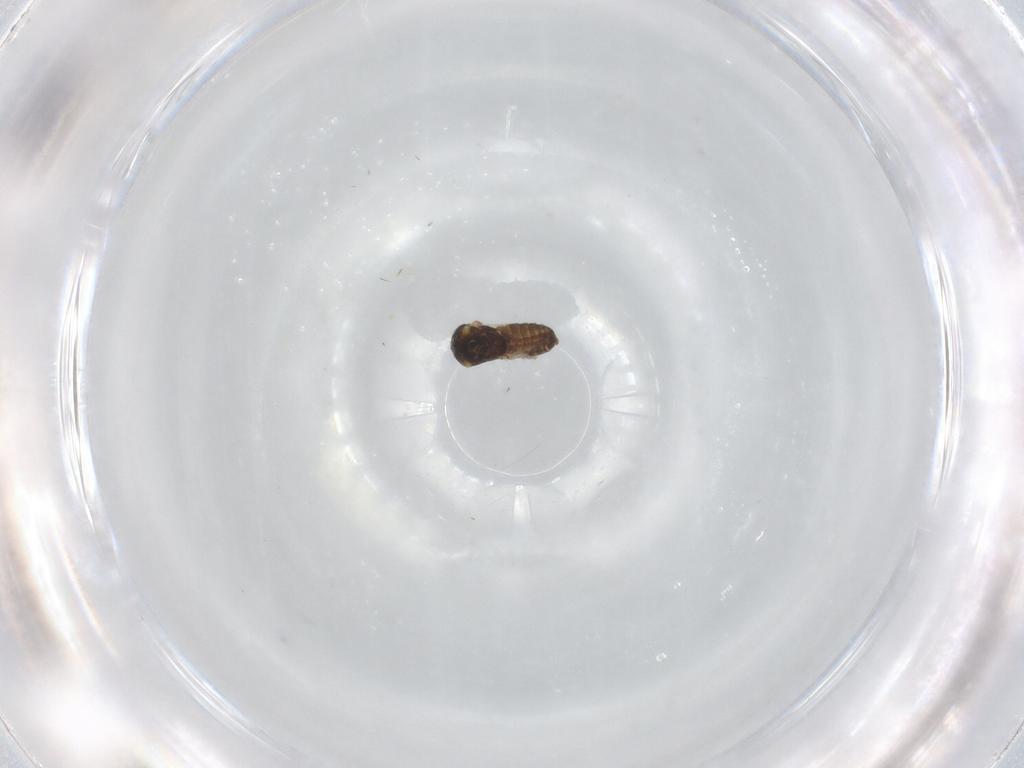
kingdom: Animalia
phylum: Arthropoda
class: Insecta
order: Diptera
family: Ceratopogonidae
